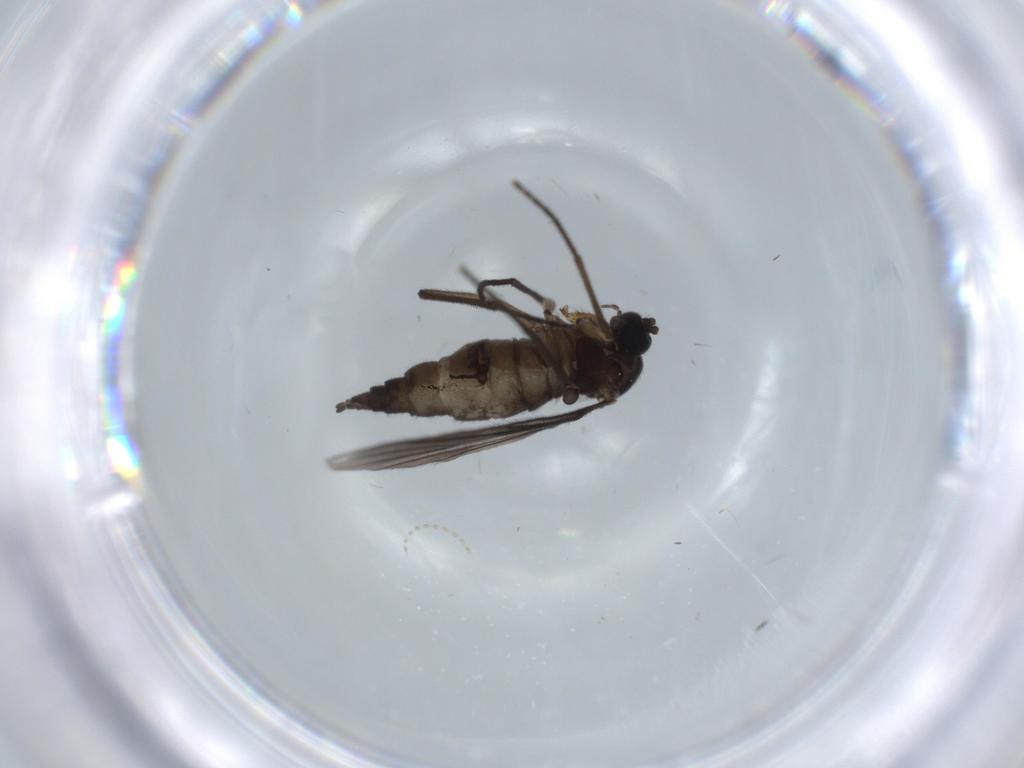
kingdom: Animalia
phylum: Arthropoda
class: Insecta
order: Diptera
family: Sciaridae
